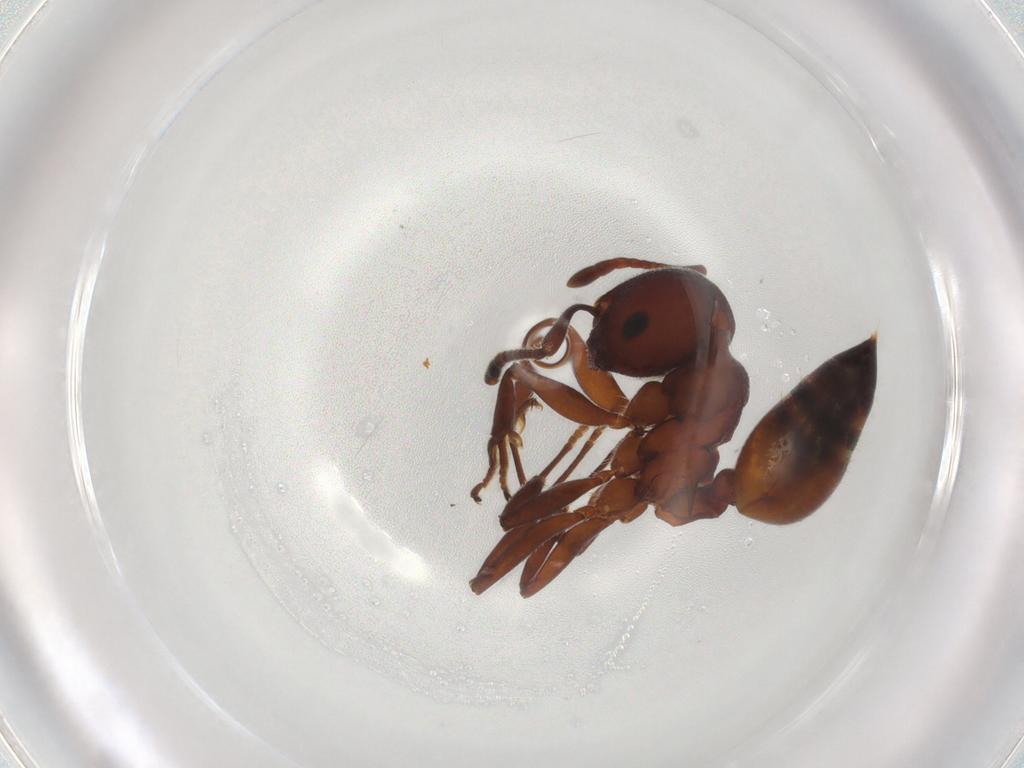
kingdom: Animalia
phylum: Arthropoda
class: Insecta
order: Hymenoptera
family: Formicidae
